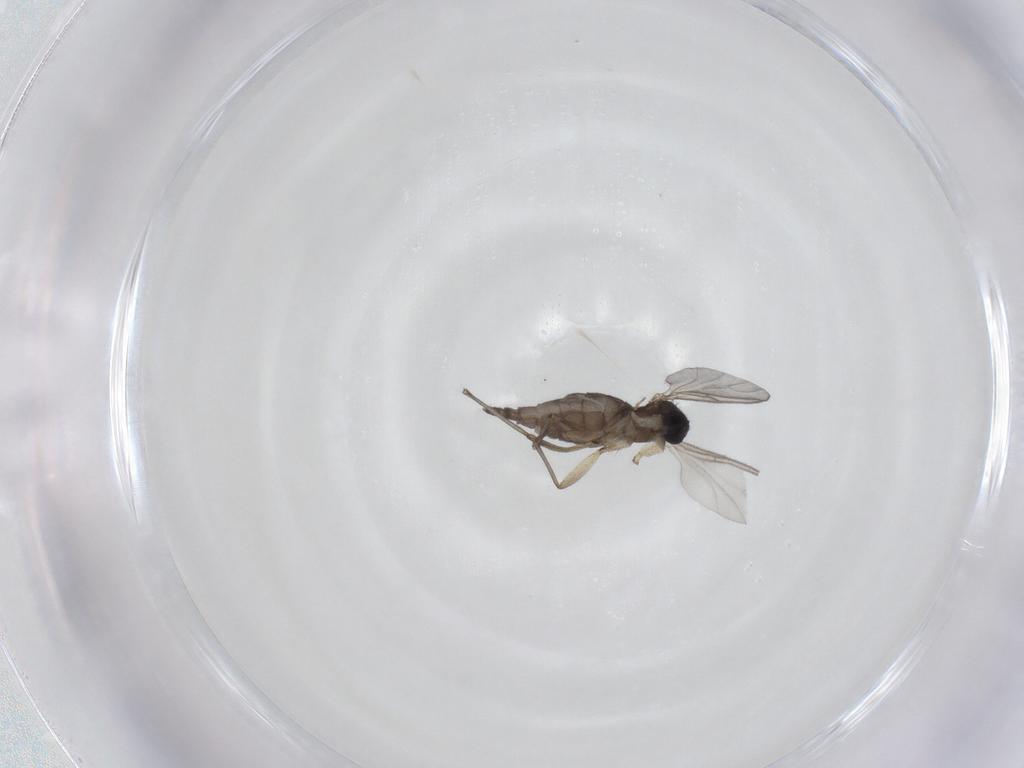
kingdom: Animalia
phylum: Arthropoda
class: Insecta
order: Diptera
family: Sciaridae
